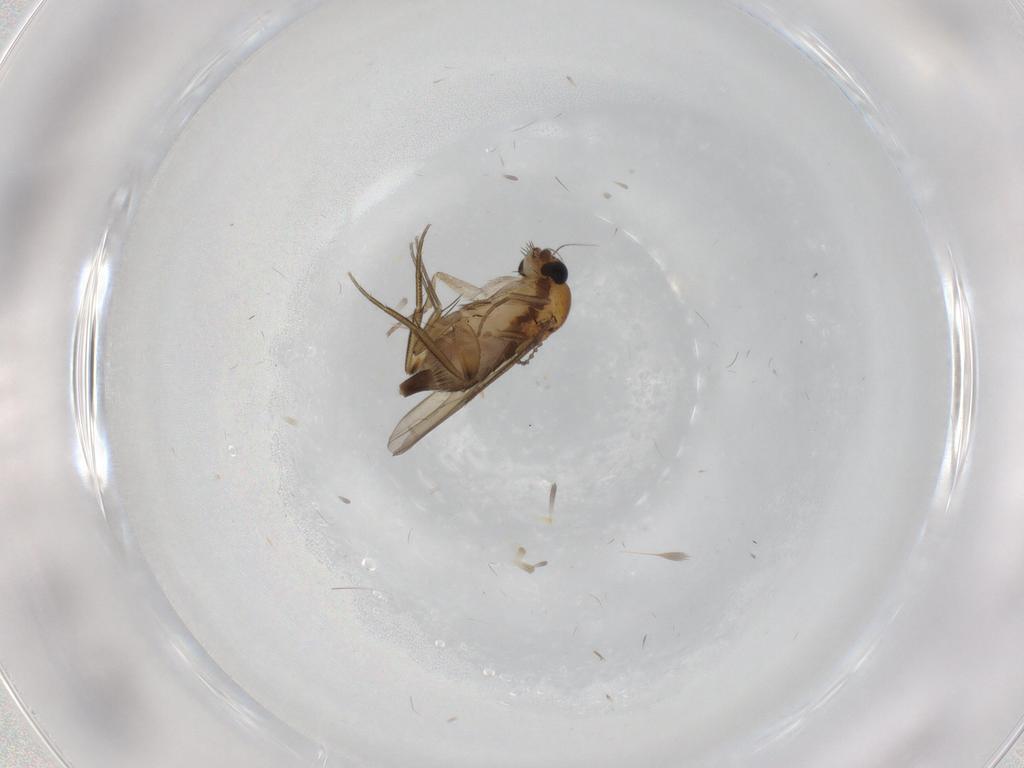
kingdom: Animalia
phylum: Arthropoda
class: Insecta
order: Diptera
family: Phoridae
